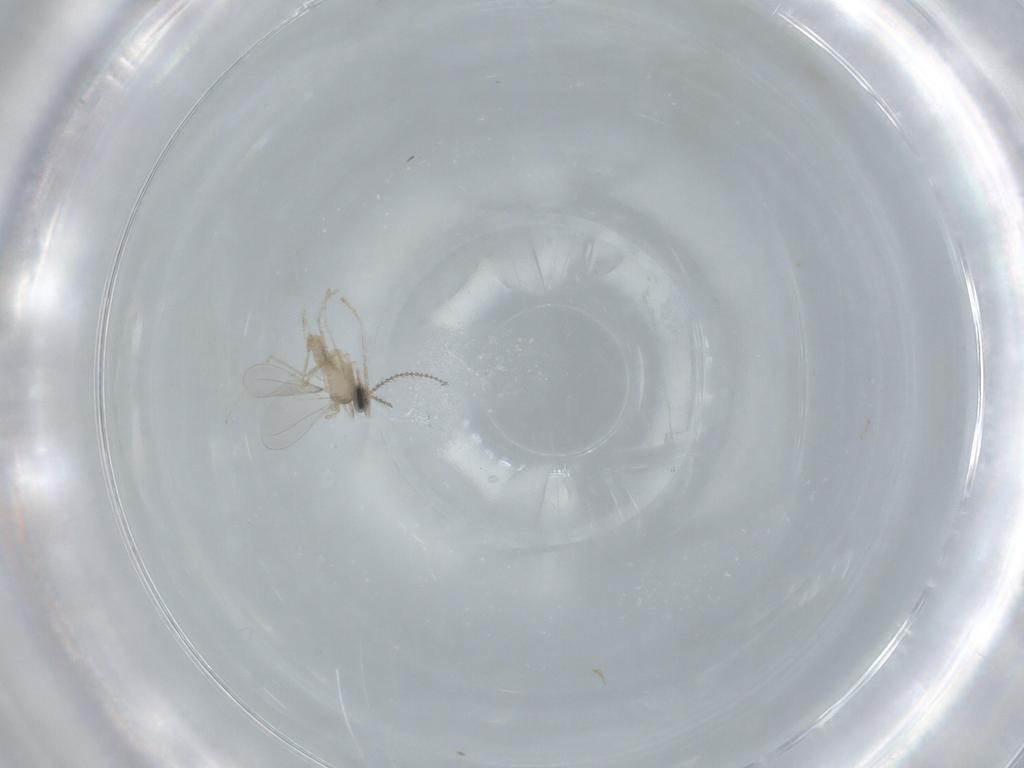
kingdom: Animalia
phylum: Arthropoda
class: Insecta
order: Diptera
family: Cecidomyiidae
